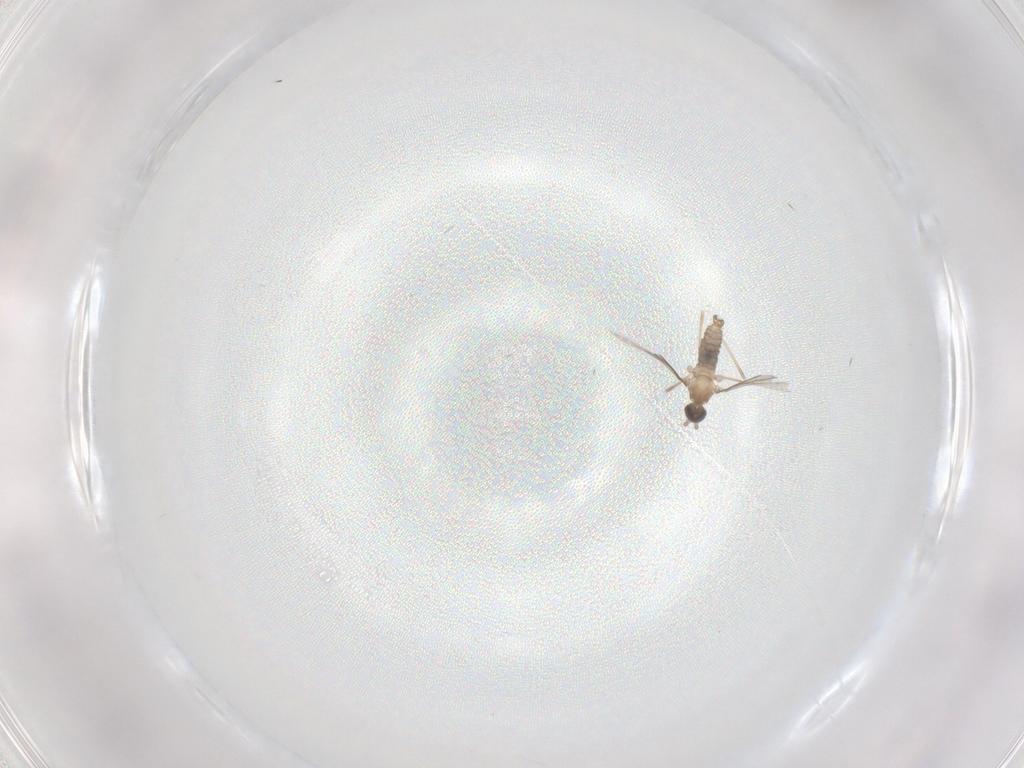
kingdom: Animalia
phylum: Arthropoda
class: Insecta
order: Diptera
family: Cecidomyiidae
